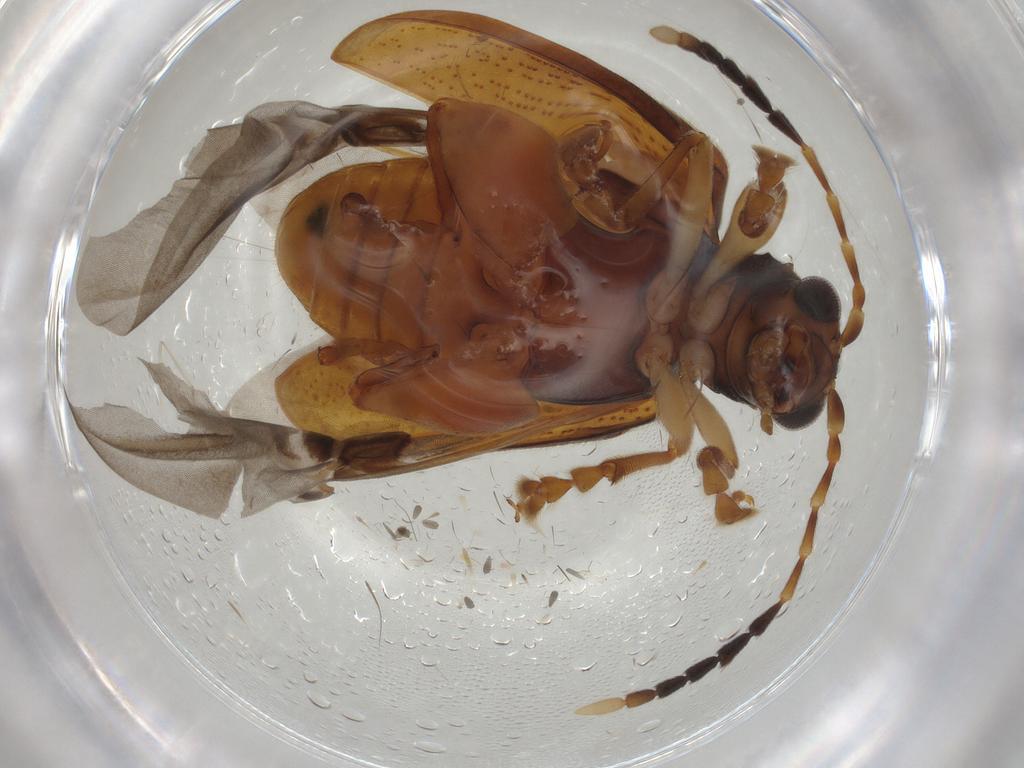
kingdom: Animalia
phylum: Arthropoda
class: Insecta
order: Coleoptera
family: Chrysomelidae
